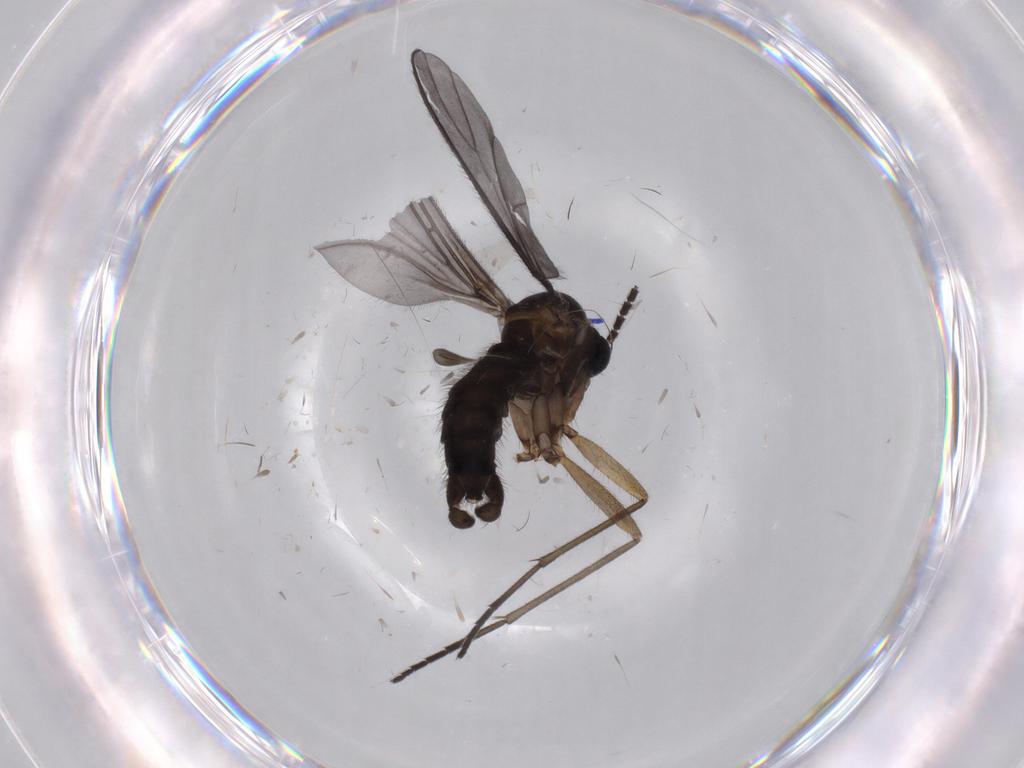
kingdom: Animalia
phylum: Arthropoda
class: Insecta
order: Diptera
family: Sciaridae
